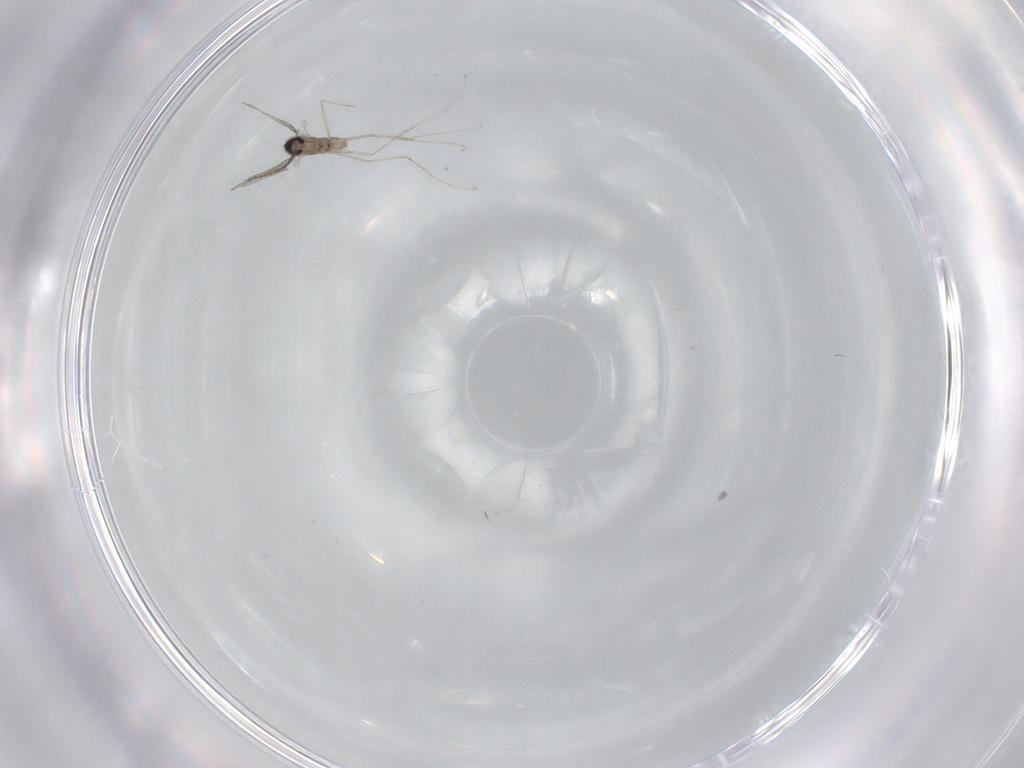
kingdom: Animalia
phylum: Arthropoda
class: Insecta
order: Diptera
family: Cecidomyiidae
